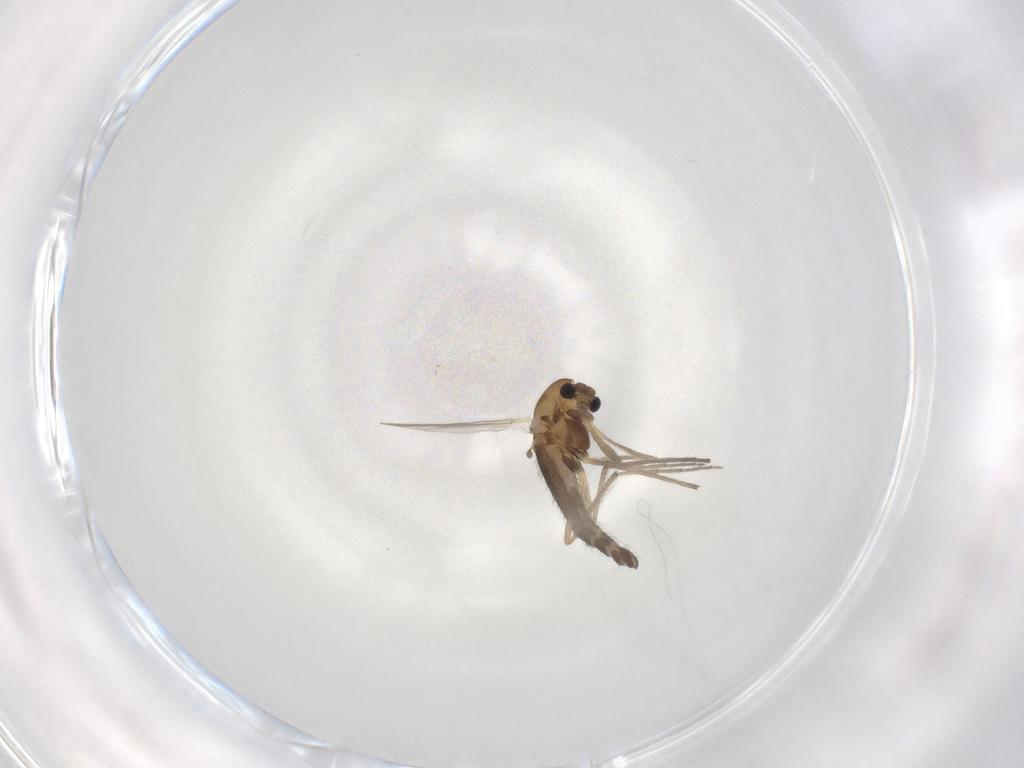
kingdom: Animalia
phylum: Arthropoda
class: Insecta
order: Diptera
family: Chironomidae
